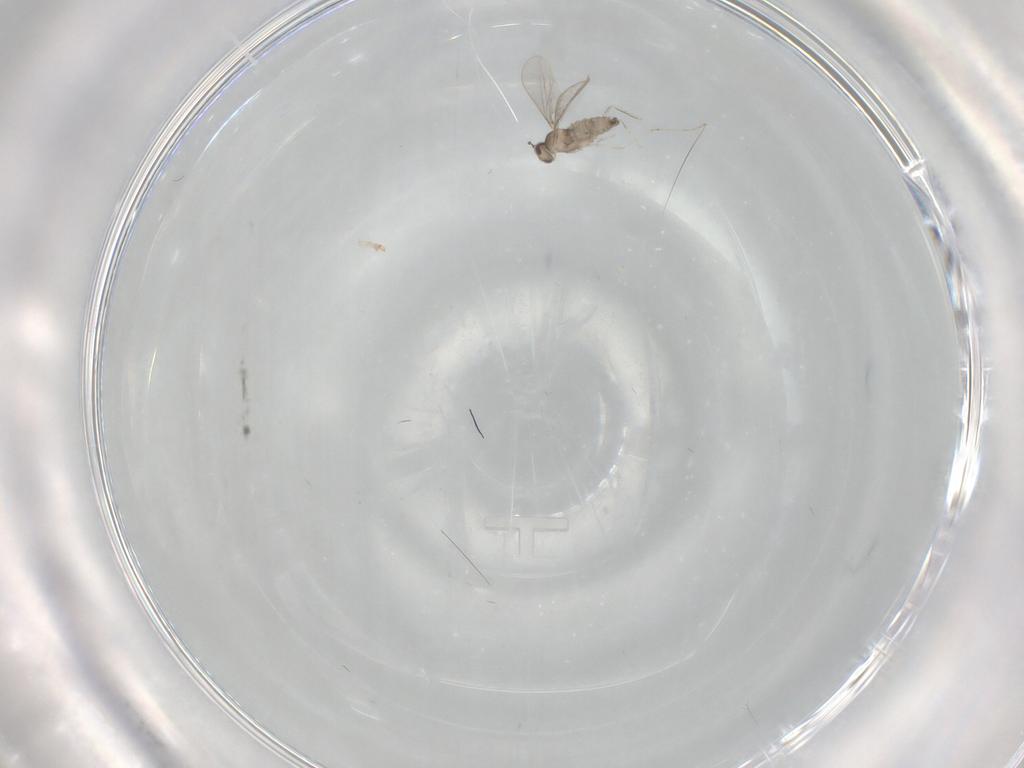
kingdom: Animalia
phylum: Arthropoda
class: Insecta
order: Diptera
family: Cecidomyiidae
